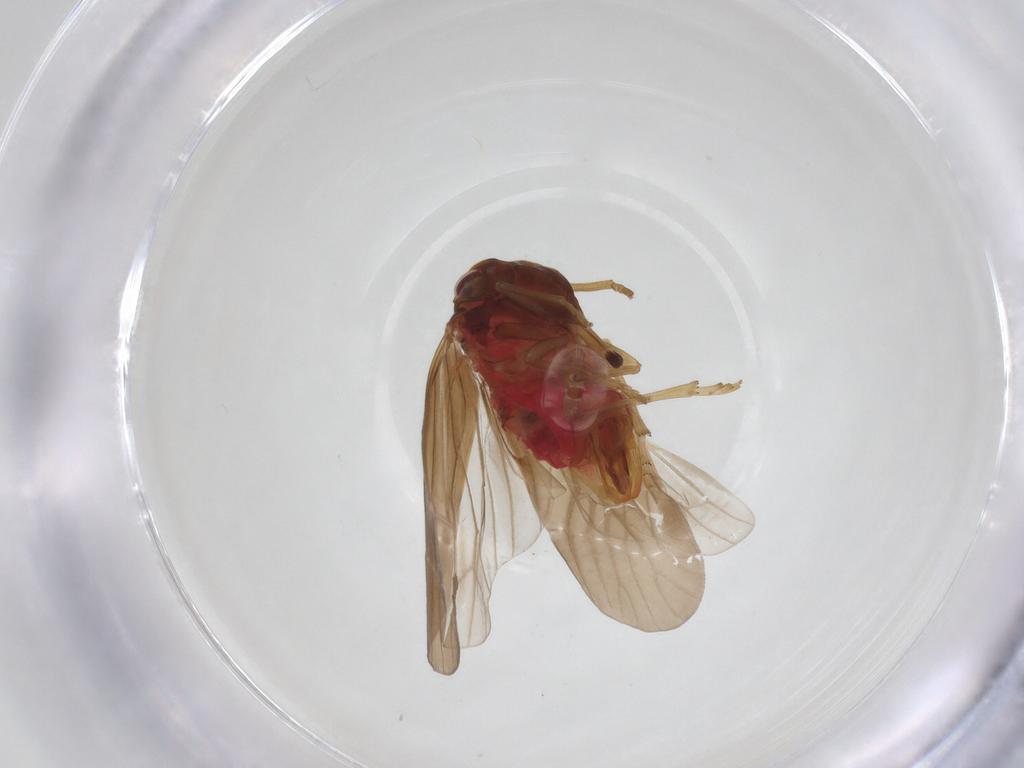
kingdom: Animalia
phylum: Arthropoda
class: Insecta
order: Hemiptera
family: Derbidae
